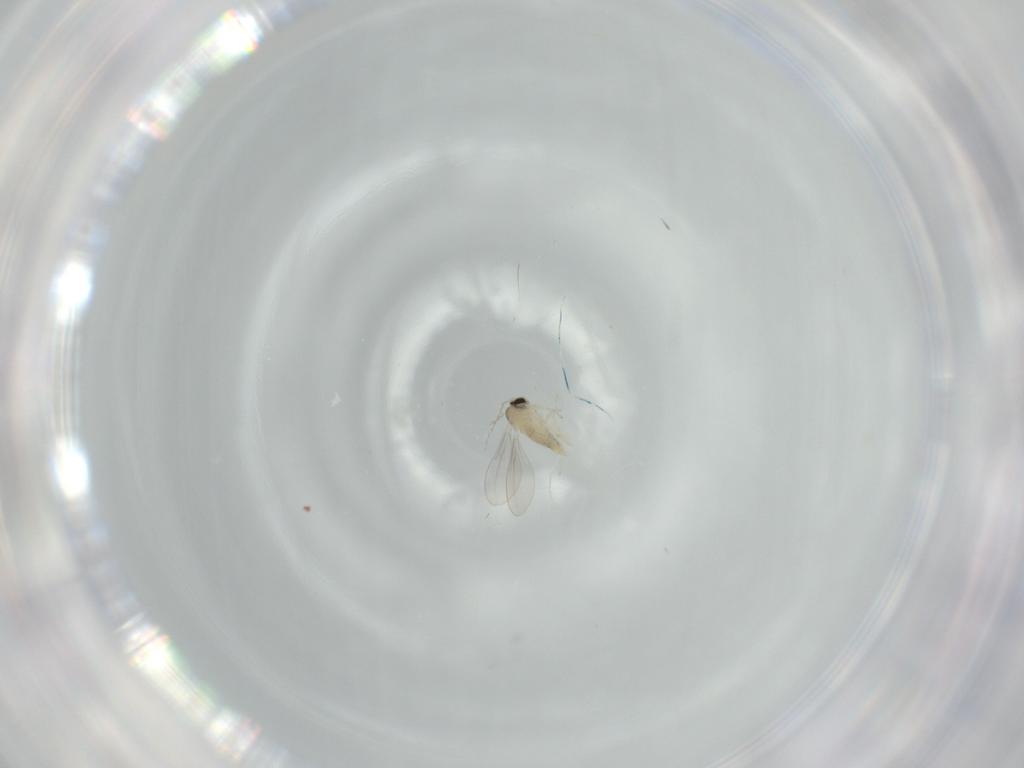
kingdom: Animalia
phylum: Arthropoda
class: Insecta
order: Diptera
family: Cecidomyiidae
